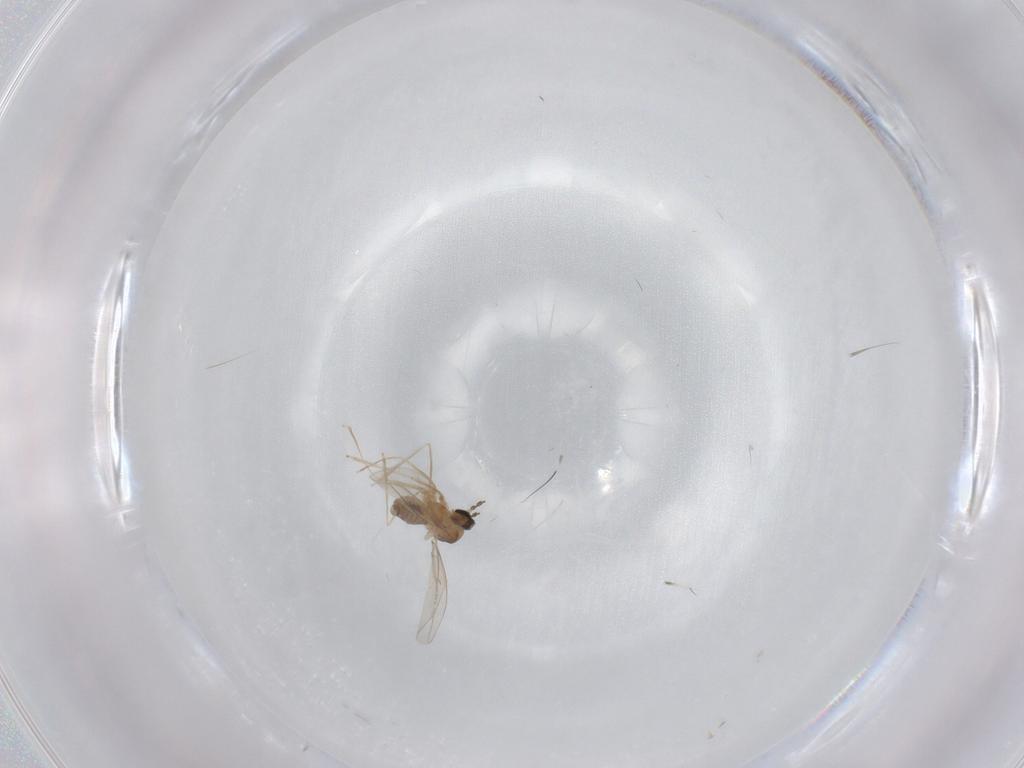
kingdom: Animalia
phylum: Arthropoda
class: Insecta
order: Diptera
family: Cecidomyiidae
